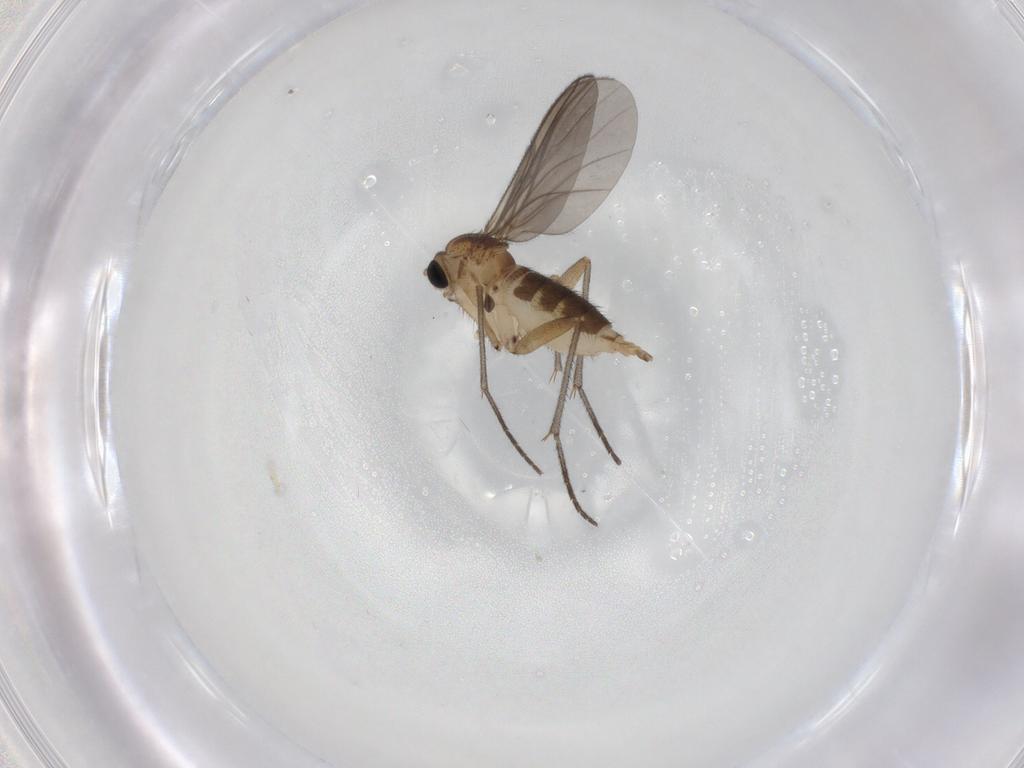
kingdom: Animalia
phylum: Arthropoda
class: Insecta
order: Diptera
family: Sciaridae
